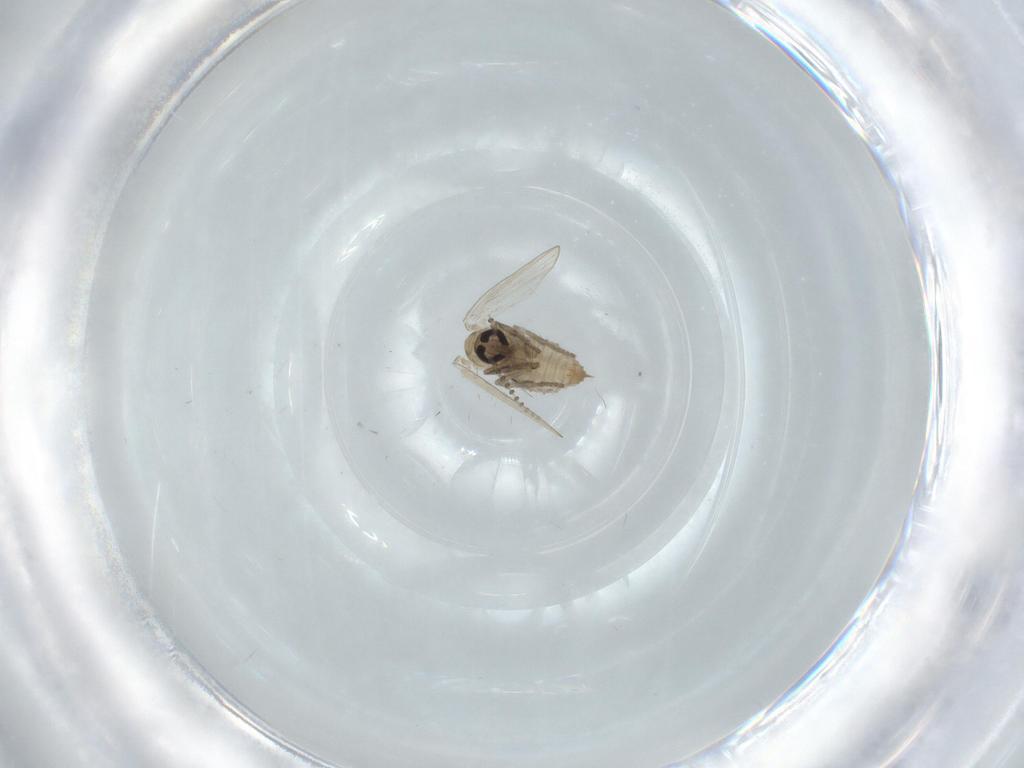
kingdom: Animalia
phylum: Arthropoda
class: Insecta
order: Diptera
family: Psychodidae
